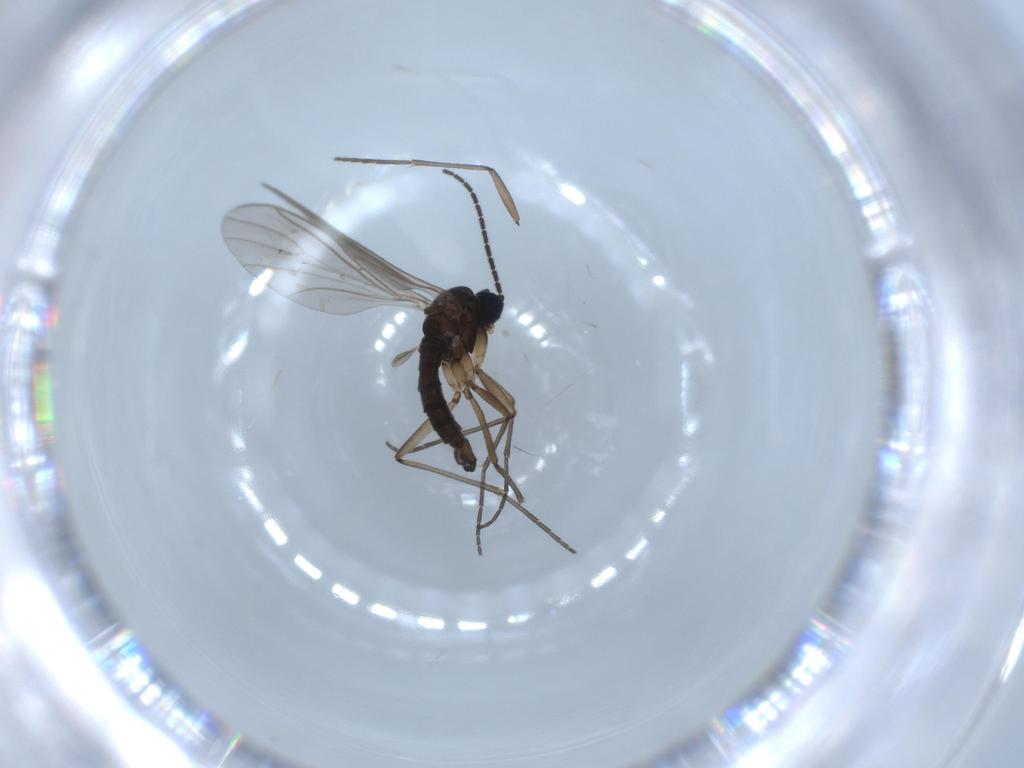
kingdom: Animalia
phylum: Arthropoda
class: Insecta
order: Diptera
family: Sciaridae
